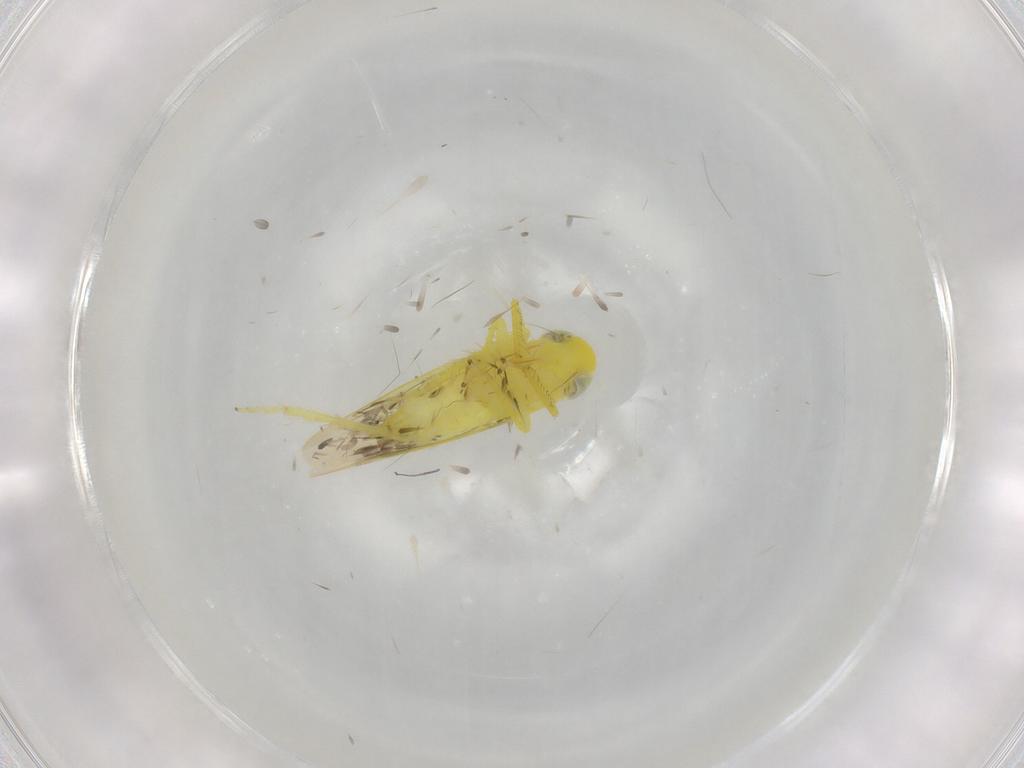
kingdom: Animalia
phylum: Arthropoda
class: Insecta
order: Hemiptera
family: Cicadellidae
